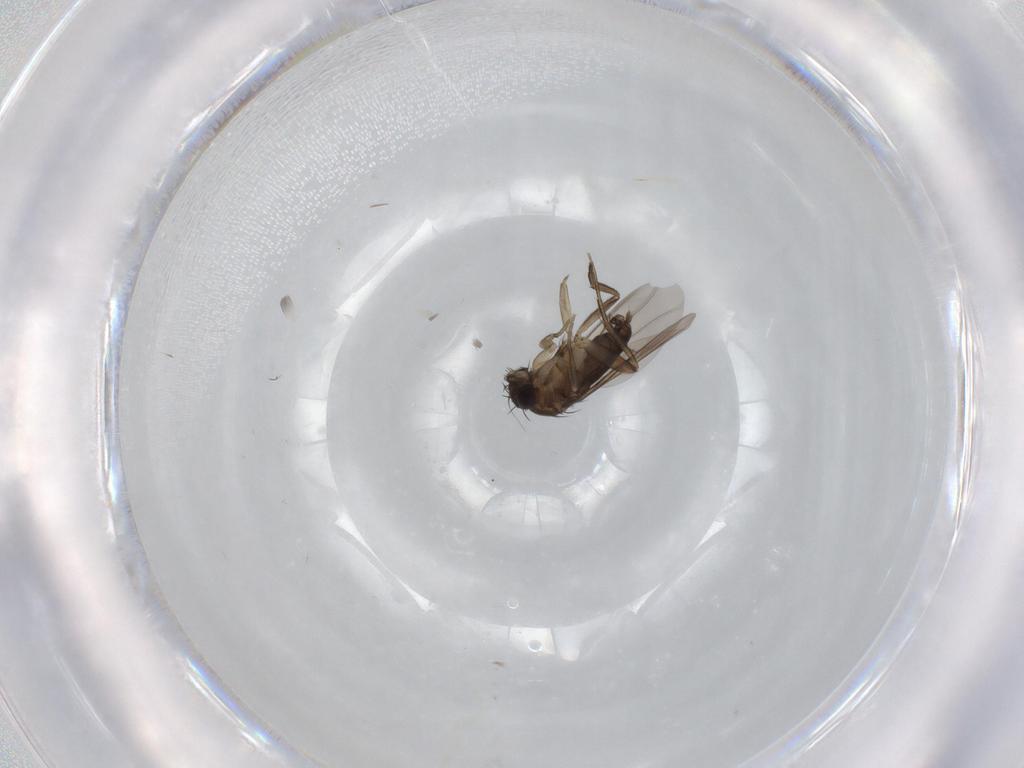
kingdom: Animalia
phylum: Arthropoda
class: Insecta
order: Diptera
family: Phoridae
